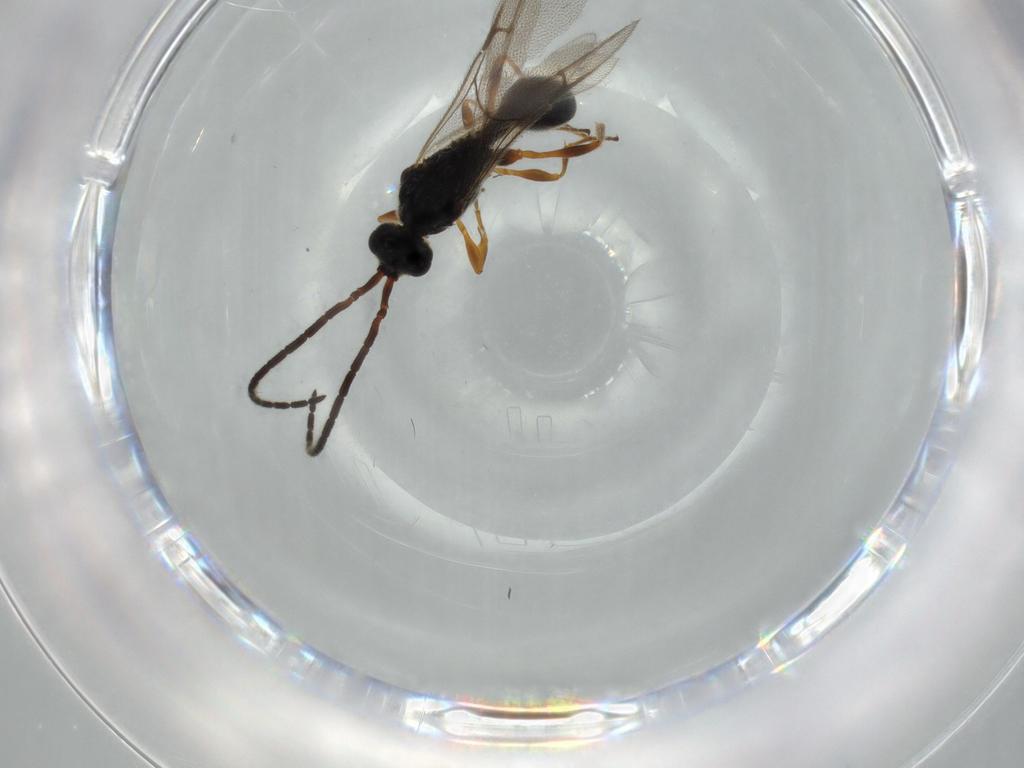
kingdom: Animalia
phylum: Arthropoda
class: Insecta
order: Hymenoptera
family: Diapriidae
